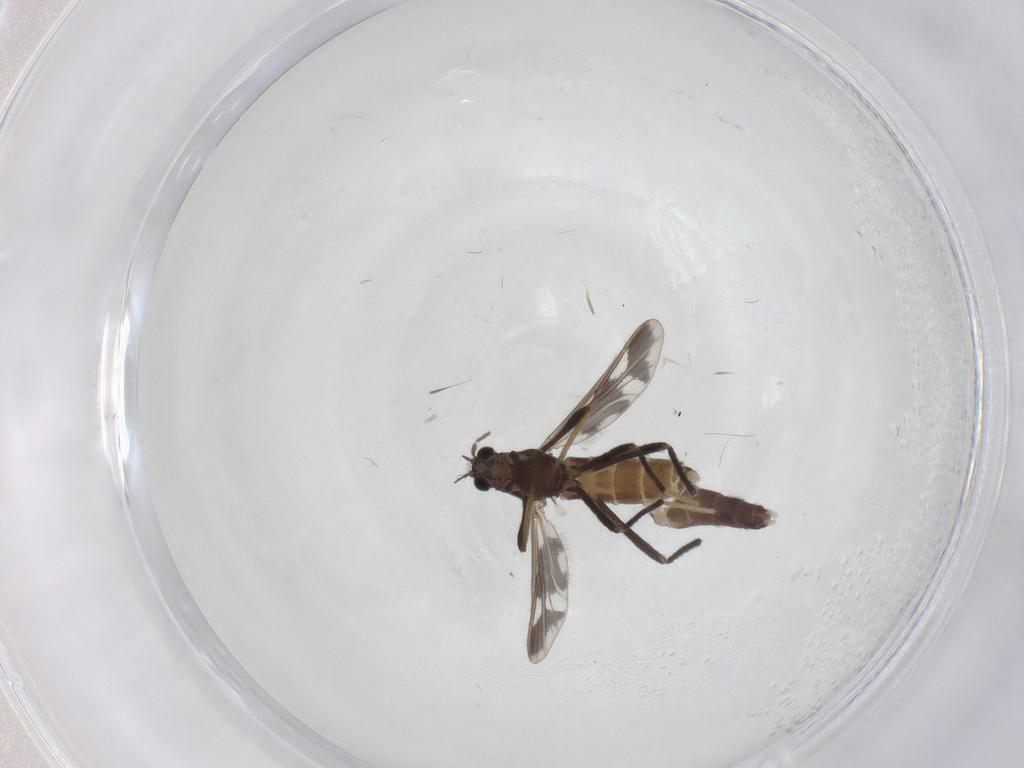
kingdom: Animalia
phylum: Arthropoda
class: Insecta
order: Diptera
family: Chironomidae
